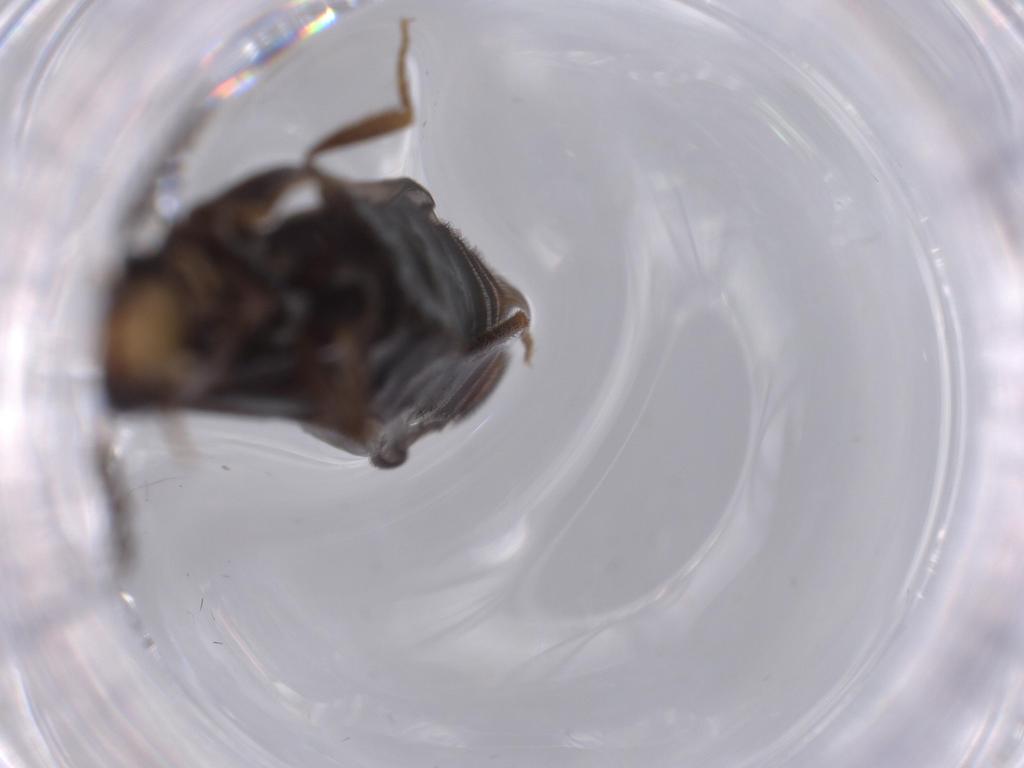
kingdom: Animalia
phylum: Arthropoda
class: Insecta
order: Coleoptera
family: Phengodidae
